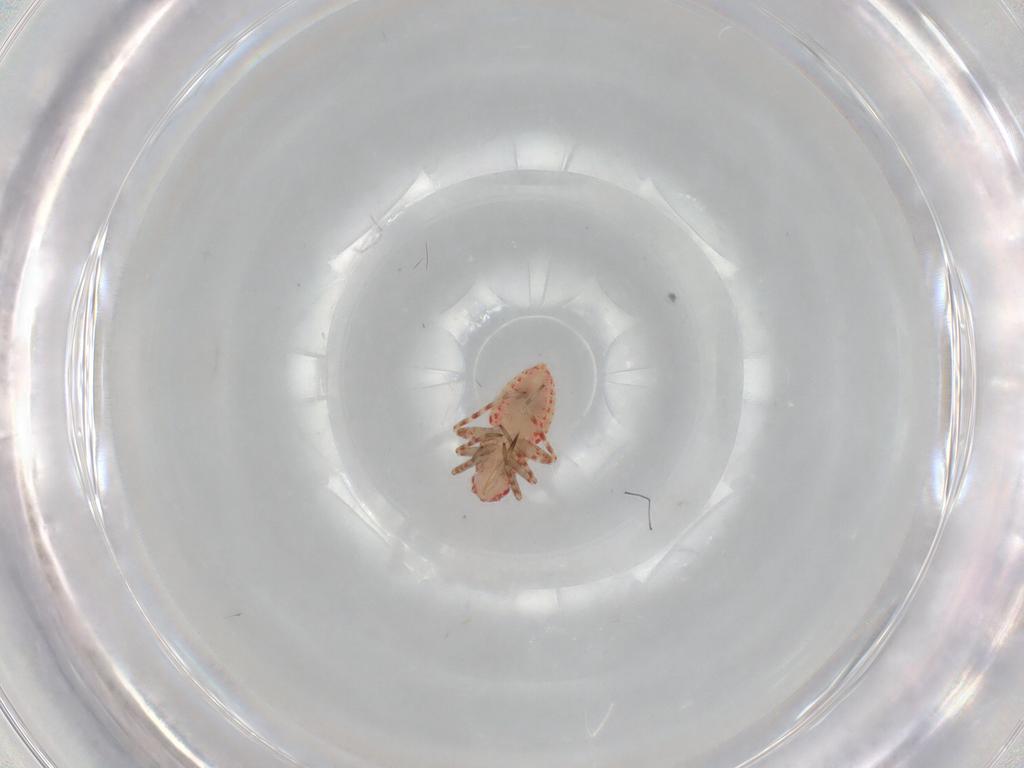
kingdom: Animalia
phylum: Arthropoda
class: Insecta
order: Hemiptera
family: Miridae
